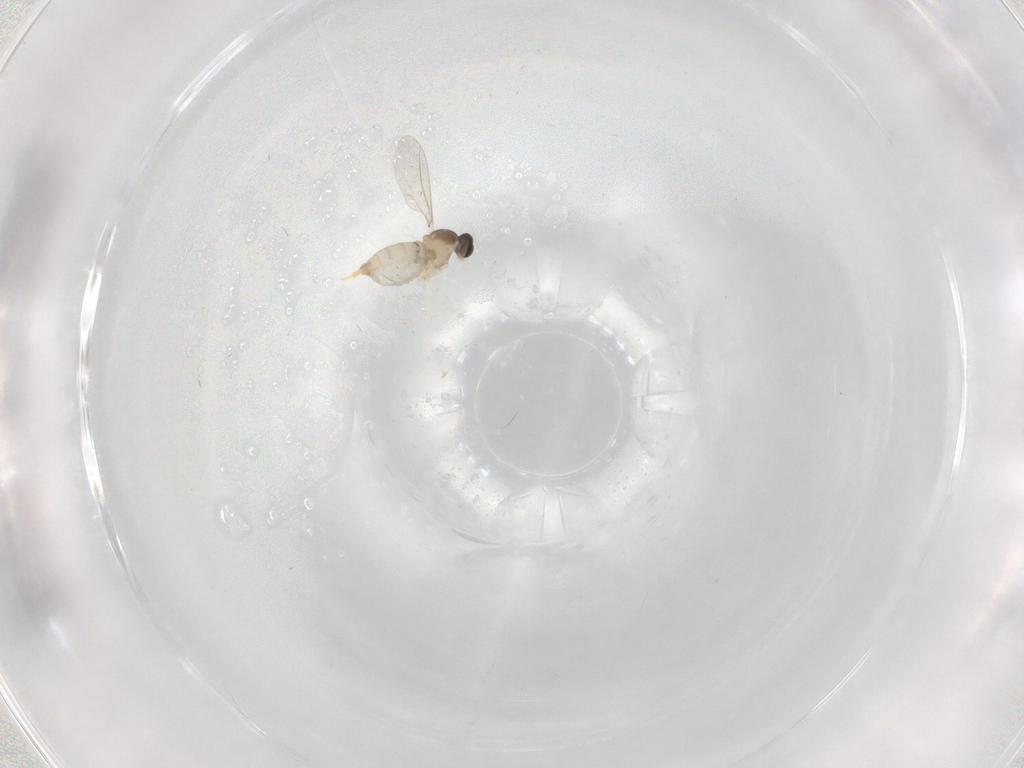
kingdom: Animalia
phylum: Arthropoda
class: Insecta
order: Diptera
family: Cecidomyiidae
